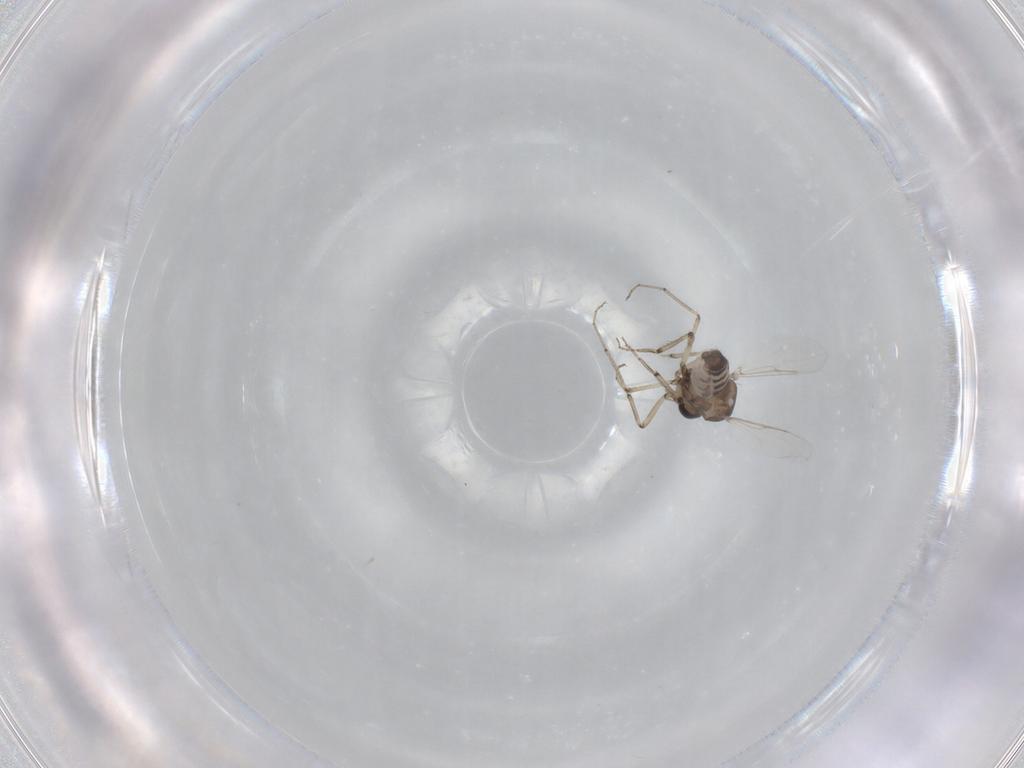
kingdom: Animalia
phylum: Arthropoda
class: Insecta
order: Diptera
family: Ceratopogonidae
